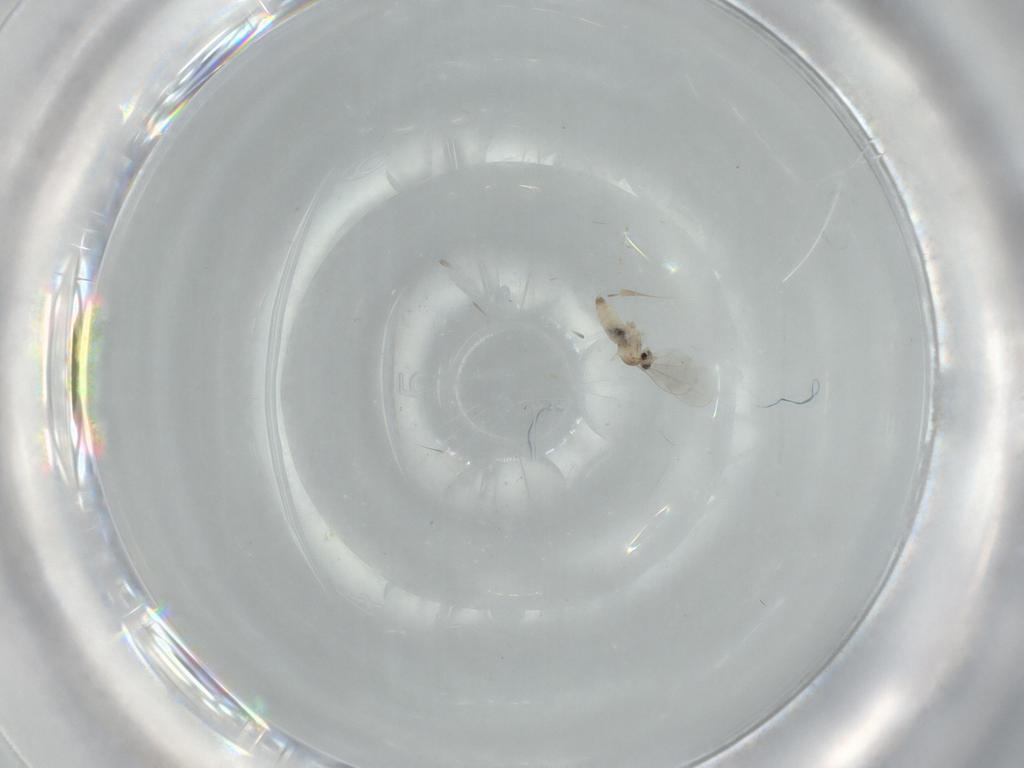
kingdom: Animalia
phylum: Arthropoda
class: Insecta
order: Diptera
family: Cecidomyiidae
